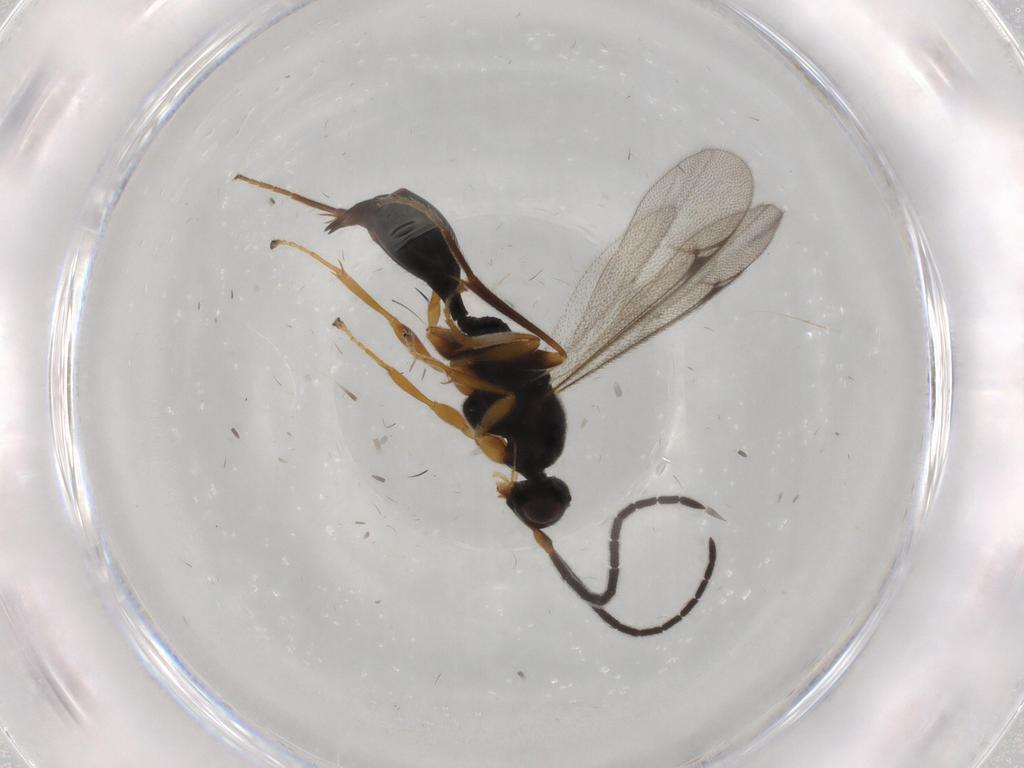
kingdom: Animalia
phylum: Arthropoda
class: Insecta
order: Hymenoptera
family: Proctotrupidae
